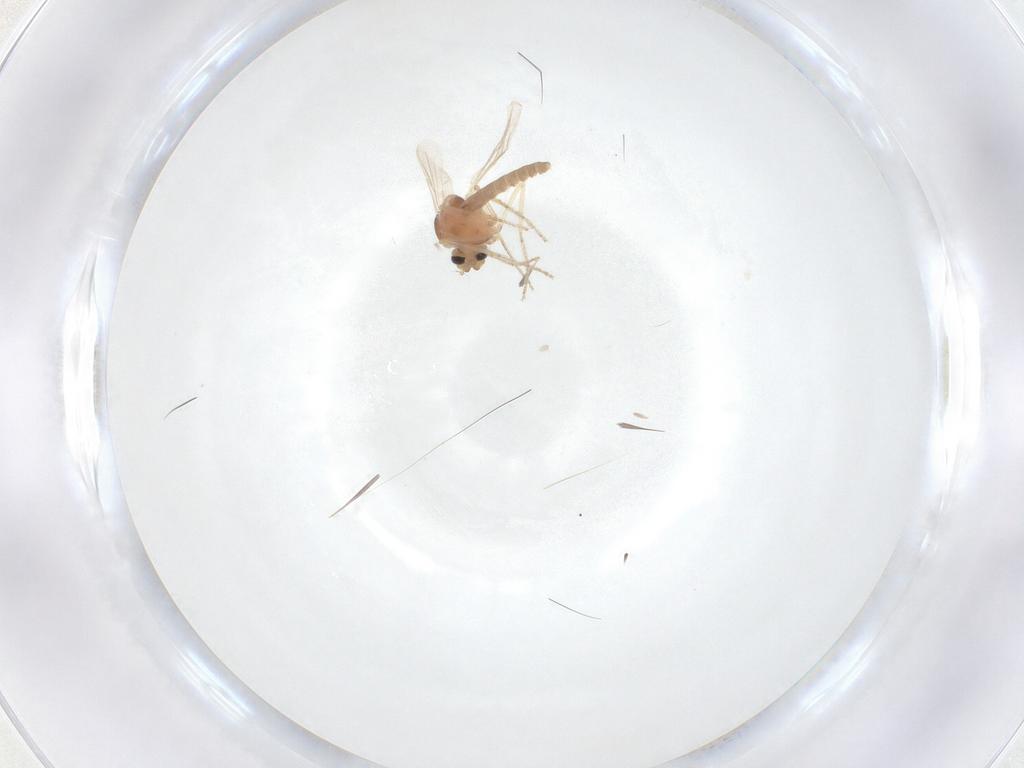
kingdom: Animalia
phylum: Arthropoda
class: Insecta
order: Diptera
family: Ceratopogonidae
